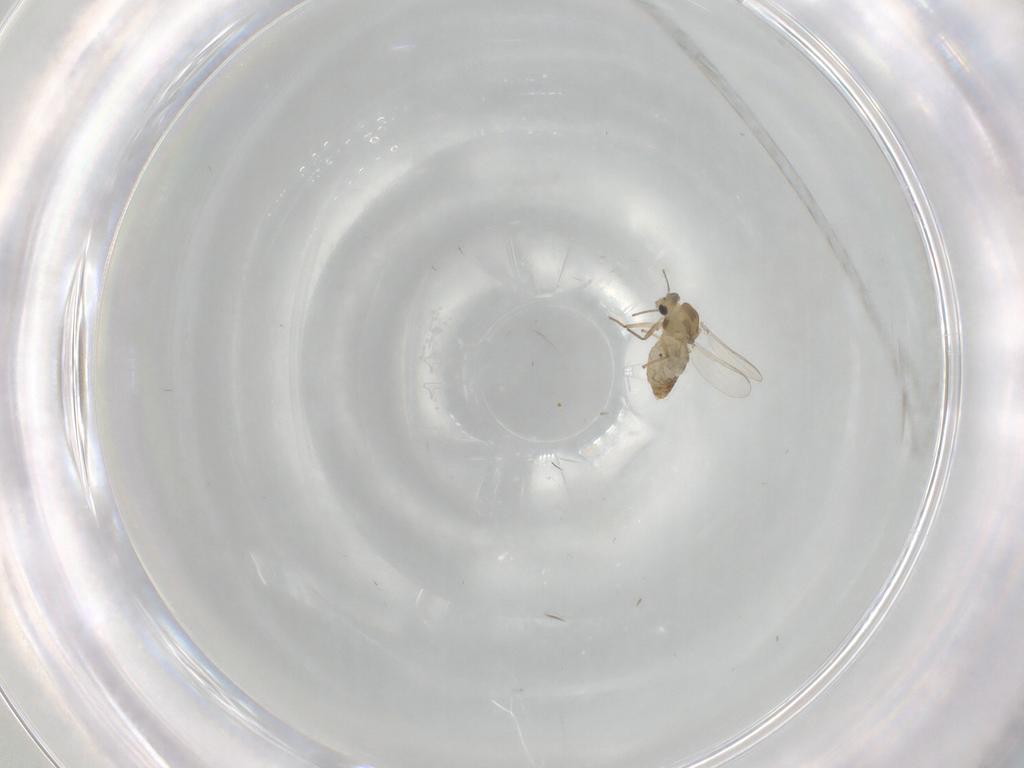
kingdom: Animalia
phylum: Arthropoda
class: Insecta
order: Diptera
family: Chironomidae
